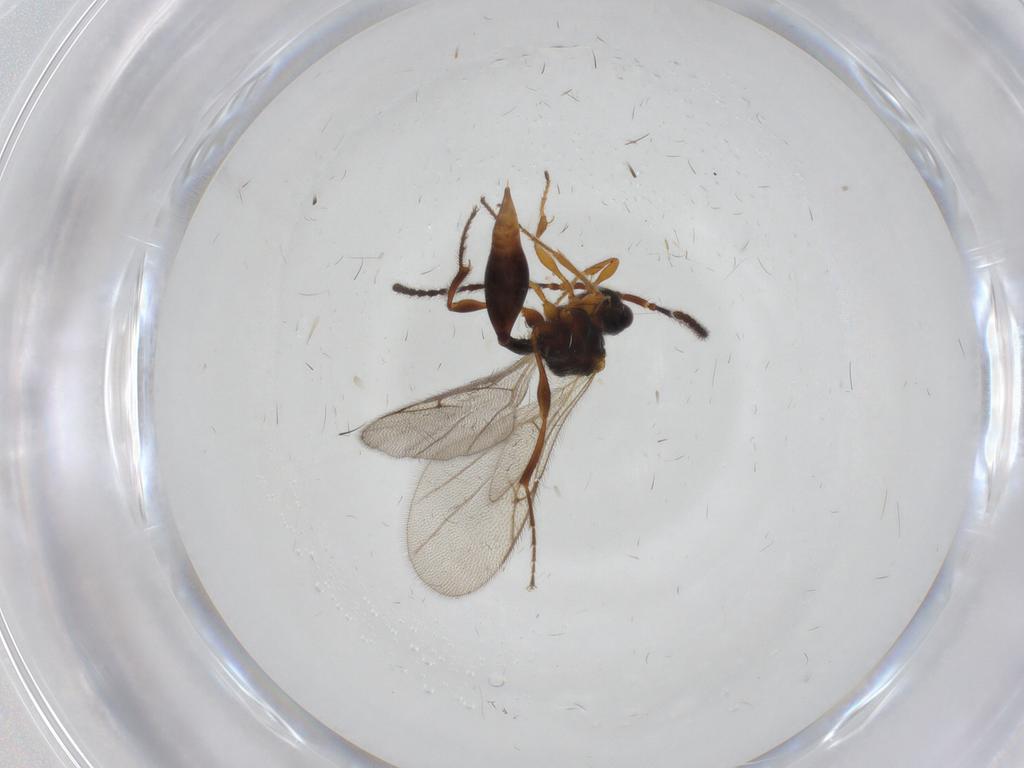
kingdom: Animalia
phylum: Arthropoda
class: Insecta
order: Hymenoptera
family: Diapriidae
